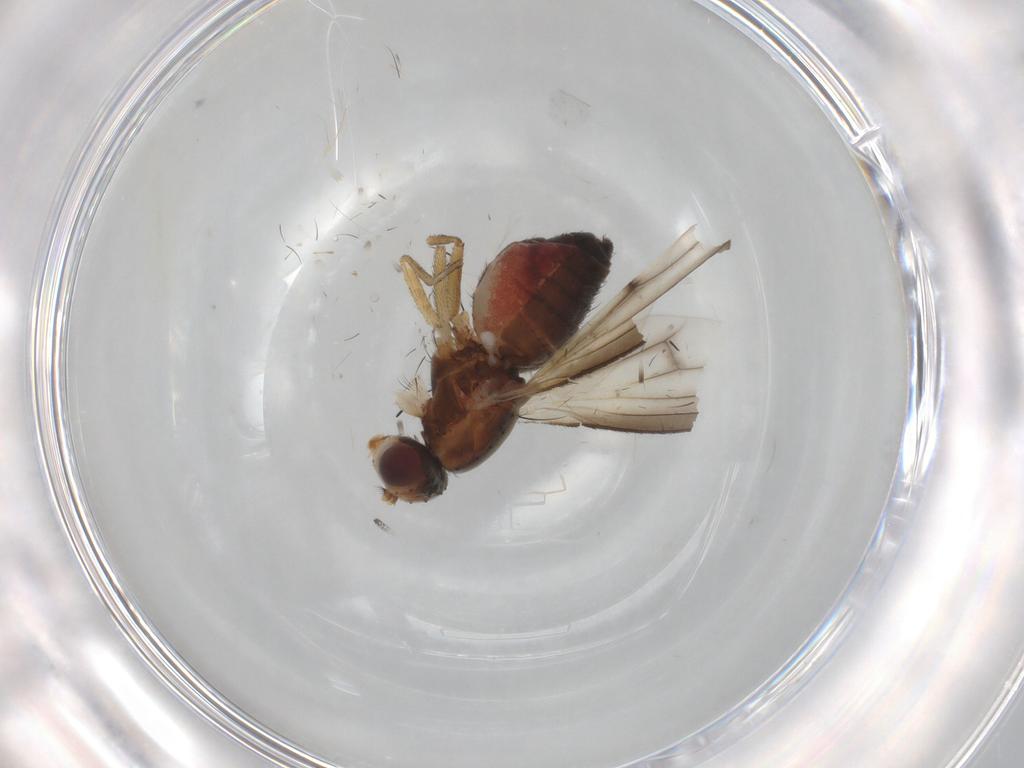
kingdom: Animalia
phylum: Arthropoda
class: Insecta
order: Diptera
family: Heleomyzidae
